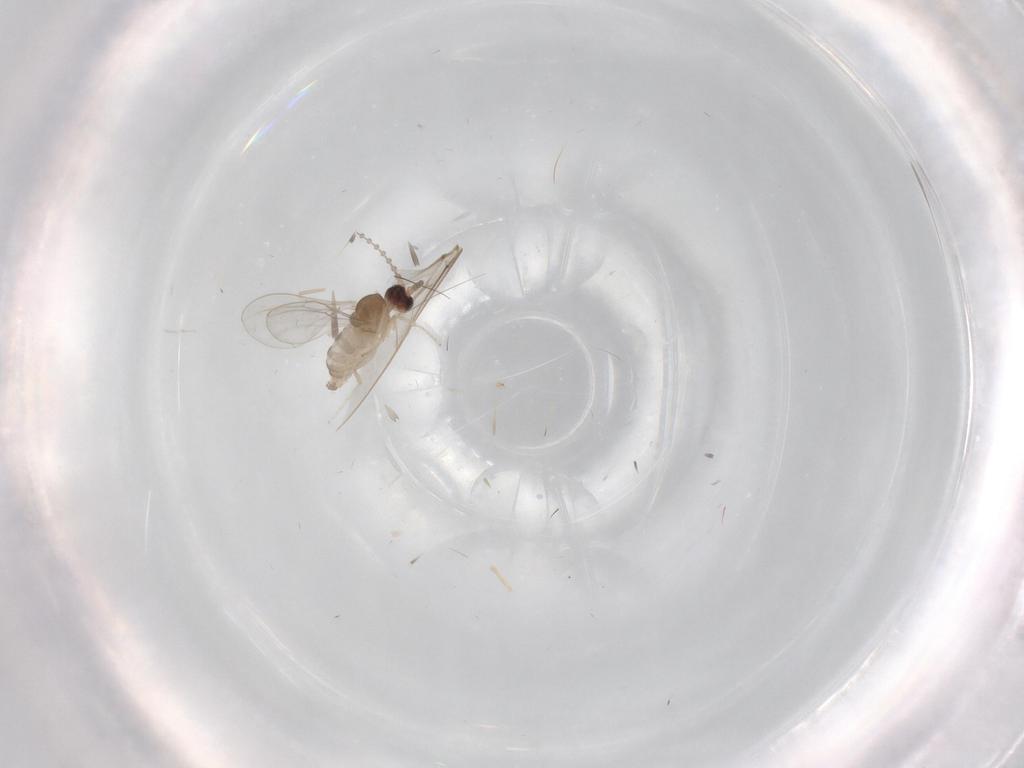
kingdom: Animalia
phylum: Arthropoda
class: Insecta
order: Diptera
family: Cecidomyiidae
